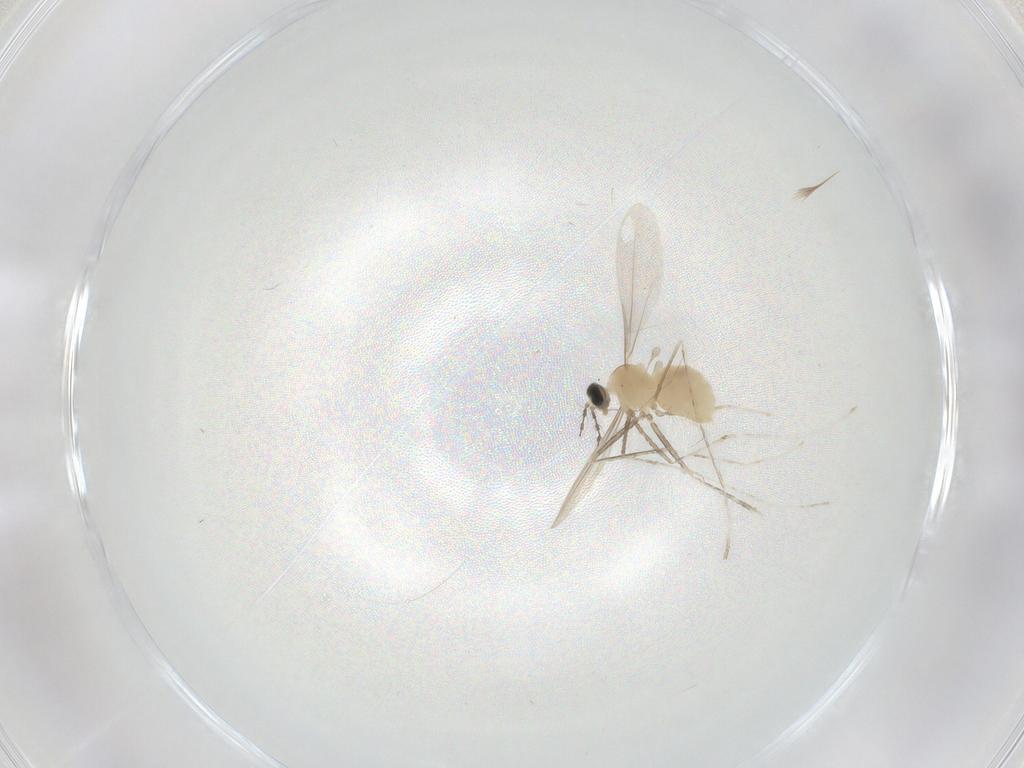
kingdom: Animalia
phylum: Arthropoda
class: Insecta
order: Diptera
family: Cecidomyiidae
